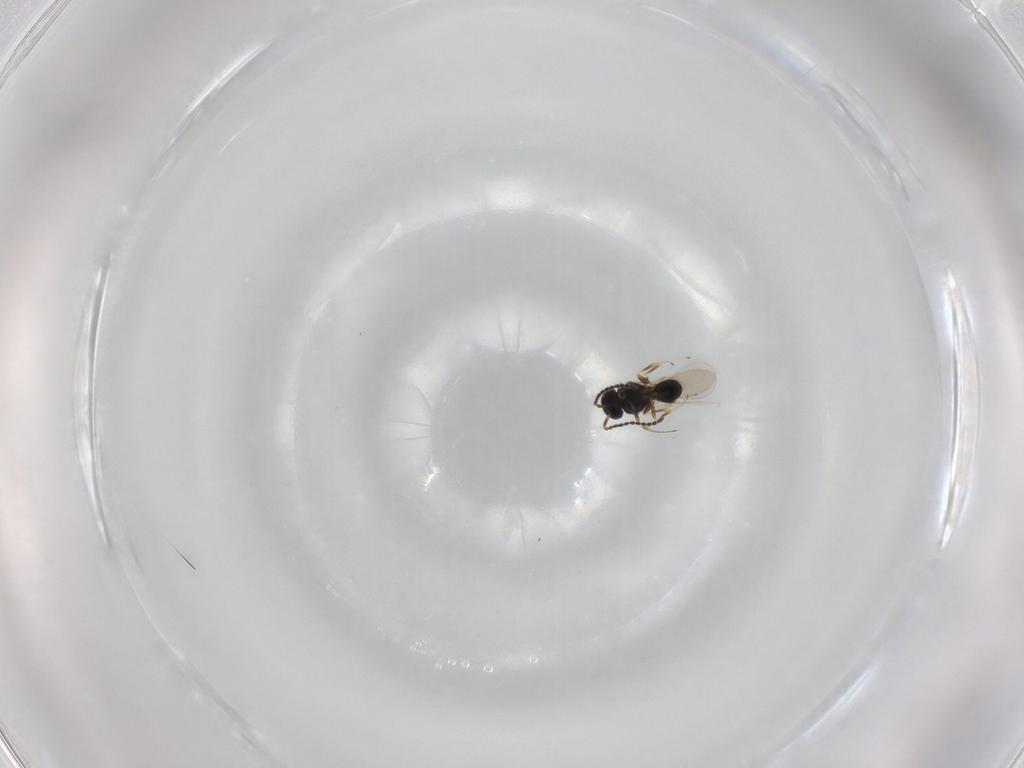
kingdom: Animalia
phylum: Arthropoda
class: Insecta
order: Hymenoptera
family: Scelionidae
